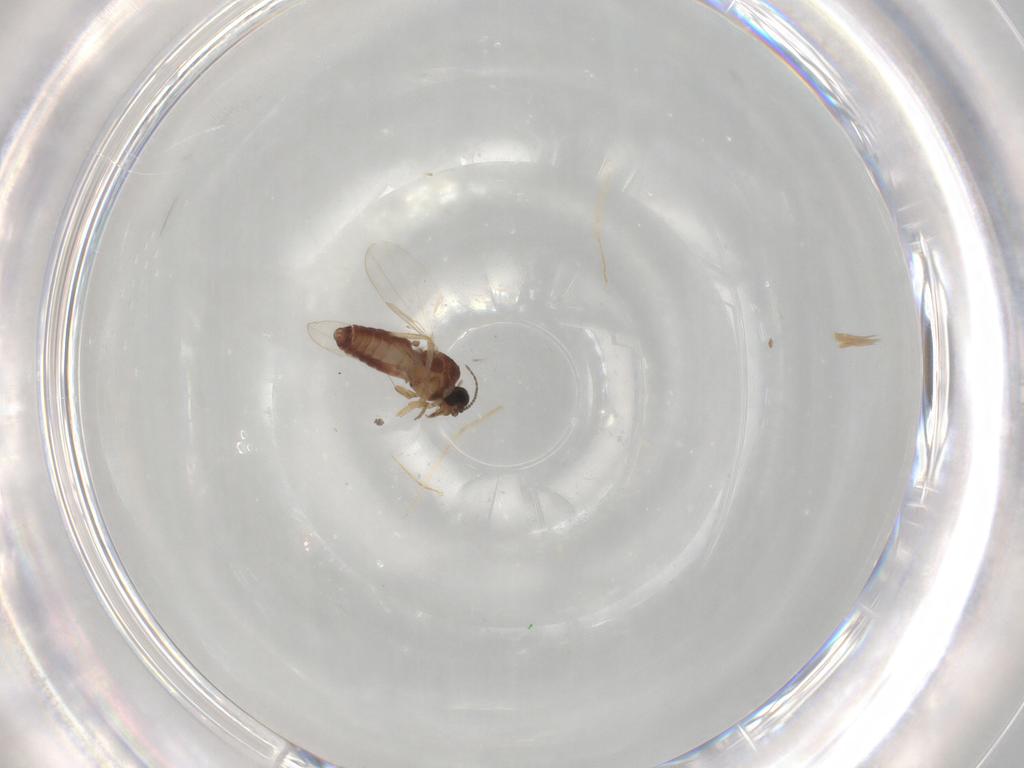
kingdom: Animalia
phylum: Arthropoda
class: Insecta
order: Diptera
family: Ceratopogonidae
